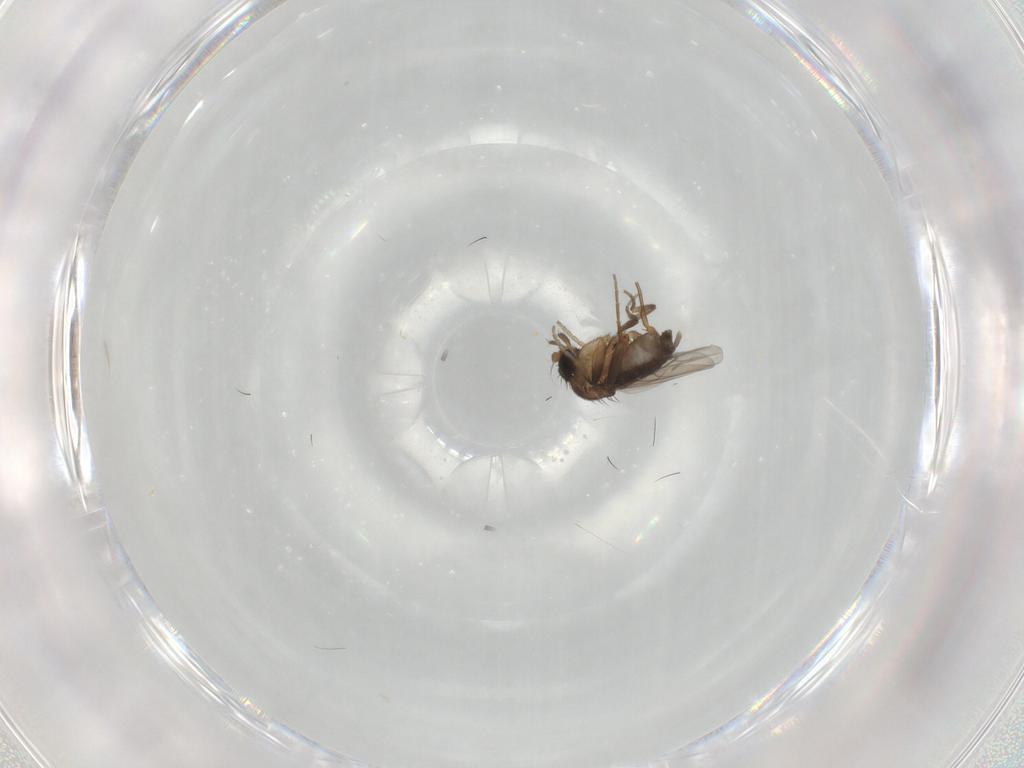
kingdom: Animalia
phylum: Arthropoda
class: Insecta
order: Diptera
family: Phoridae
